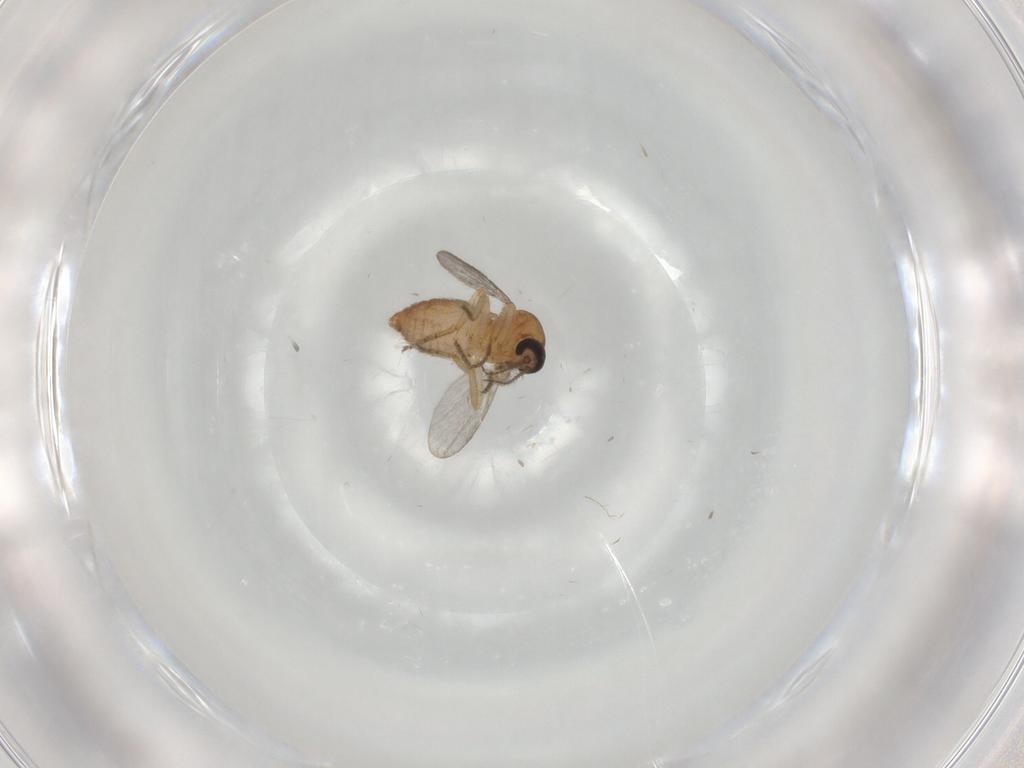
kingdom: Animalia
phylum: Arthropoda
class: Insecta
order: Diptera
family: Ceratopogonidae
